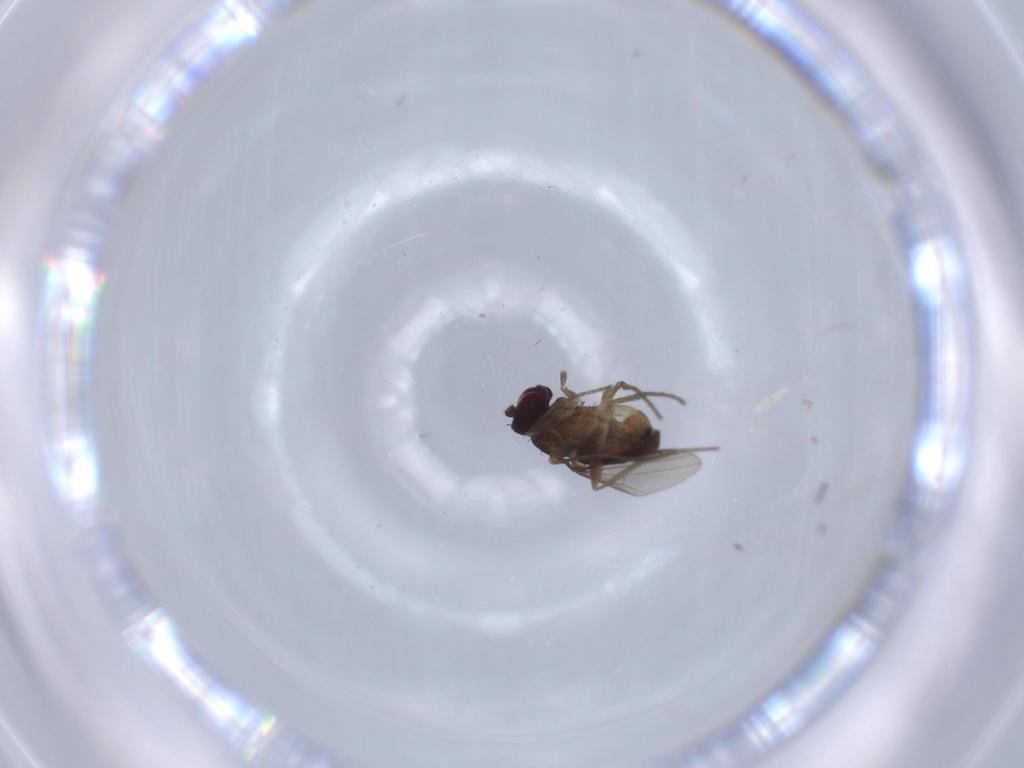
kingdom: Animalia
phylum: Arthropoda
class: Insecta
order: Diptera
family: Dolichopodidae
